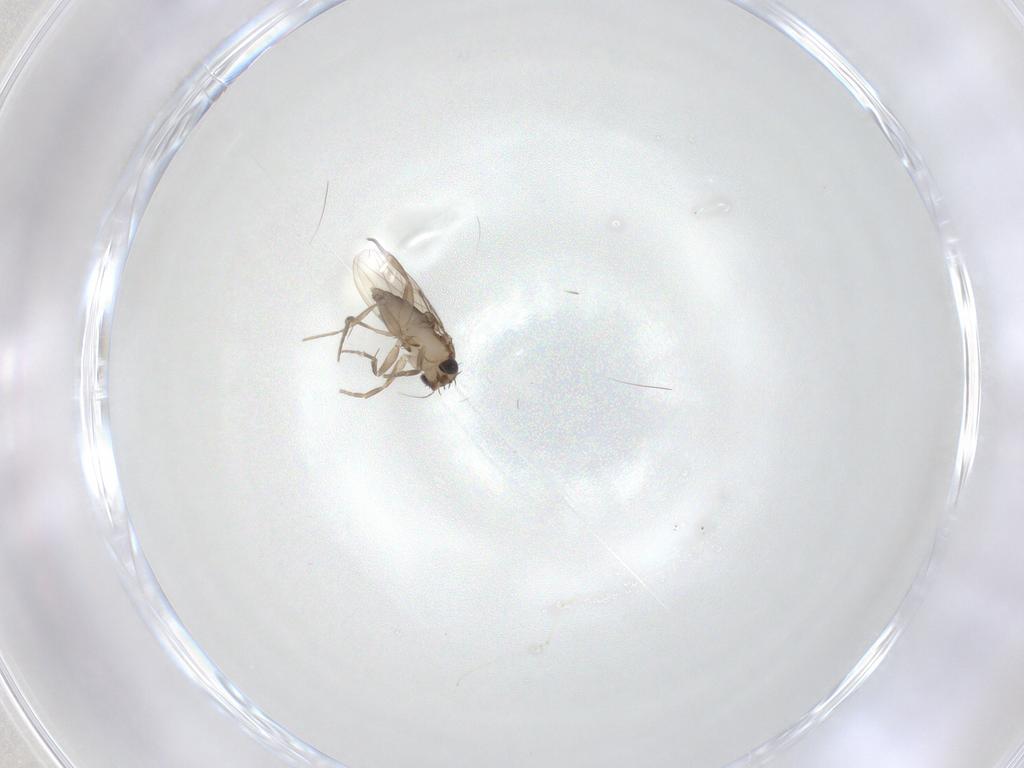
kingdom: Animalia
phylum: Arthropoda
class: Insecta
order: Diptera
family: Phoridae
